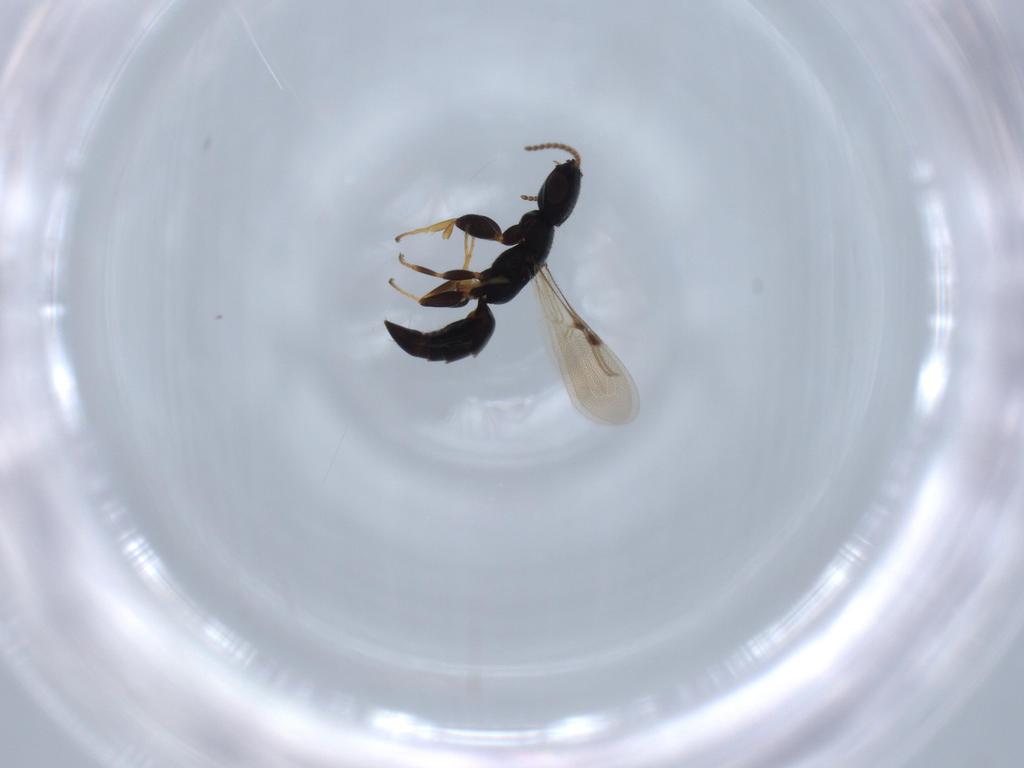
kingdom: Animalia
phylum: Arthropoda
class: Insecta
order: Hymenoptera
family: Bethylidae
